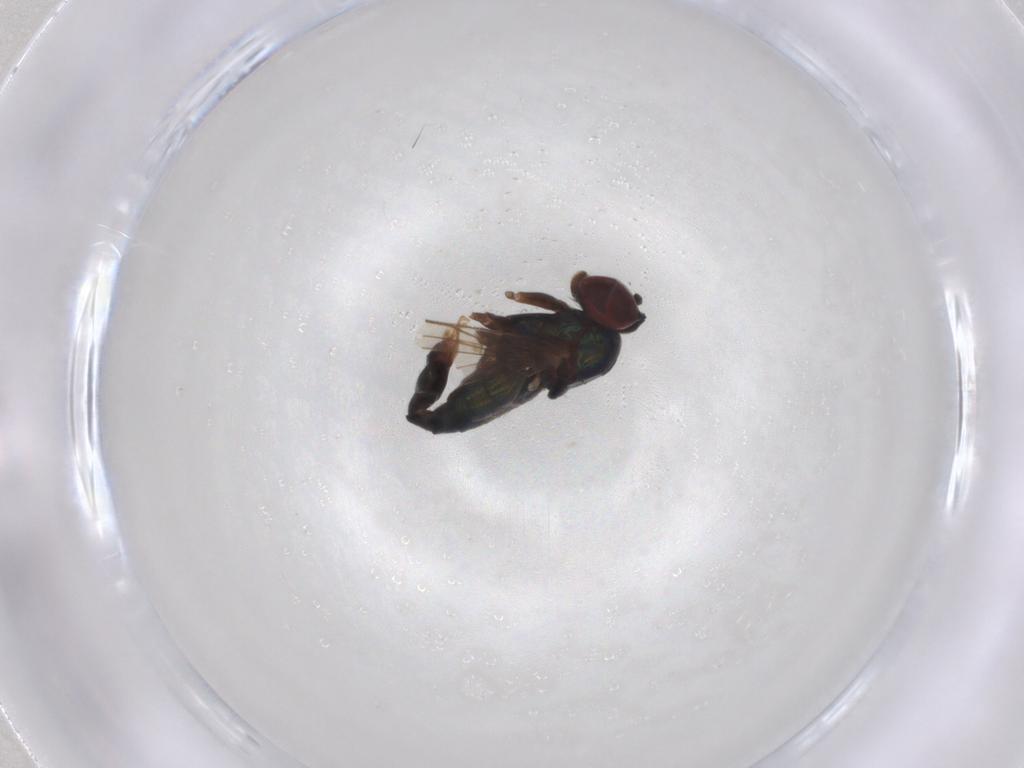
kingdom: Animalia
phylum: Arthropoda
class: Insecta
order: Diptera
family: Dolichopodidae
